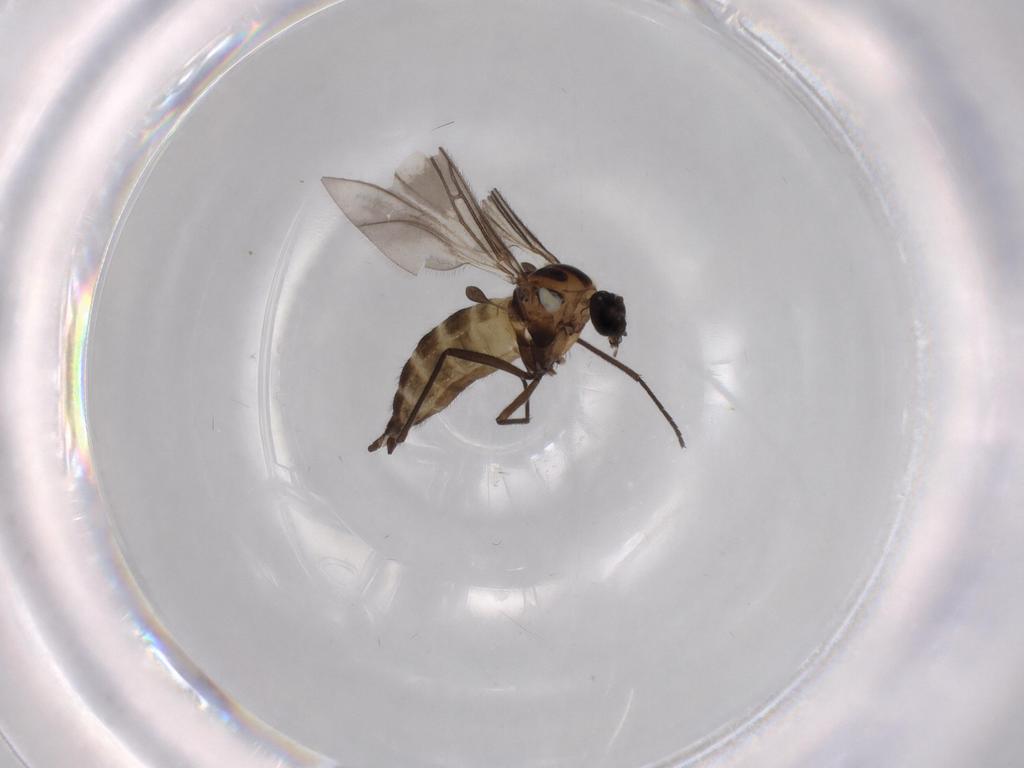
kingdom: Animalia
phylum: Arthropoda
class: Insecta
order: Diptera
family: Sciaridae
